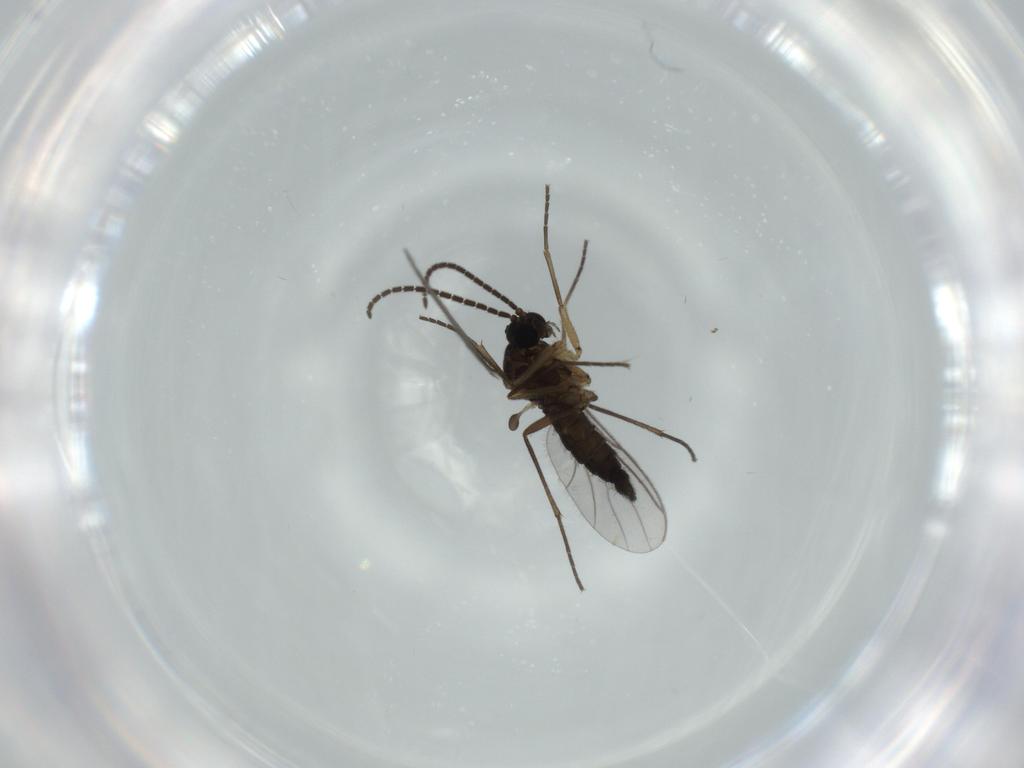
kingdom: Animalia
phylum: Arthropoda
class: Insecta
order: Diptera
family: Sciaridae
